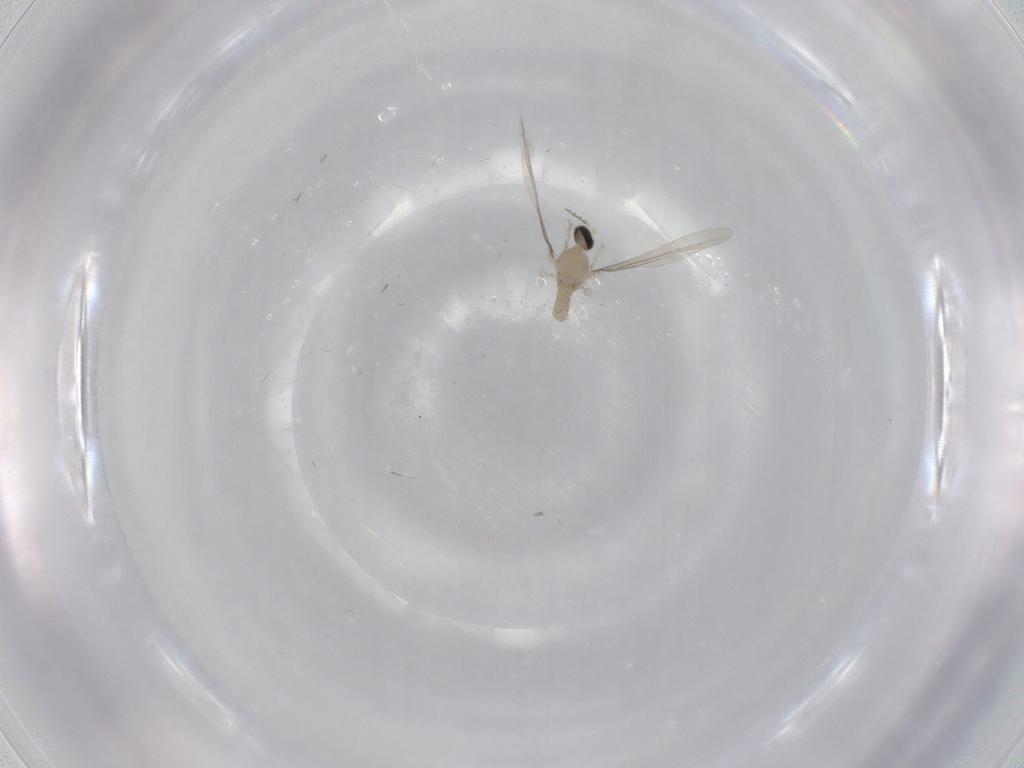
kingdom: Animalia
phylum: Arthropoda
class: Insecta
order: Diptera
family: Cecidomyiidae
